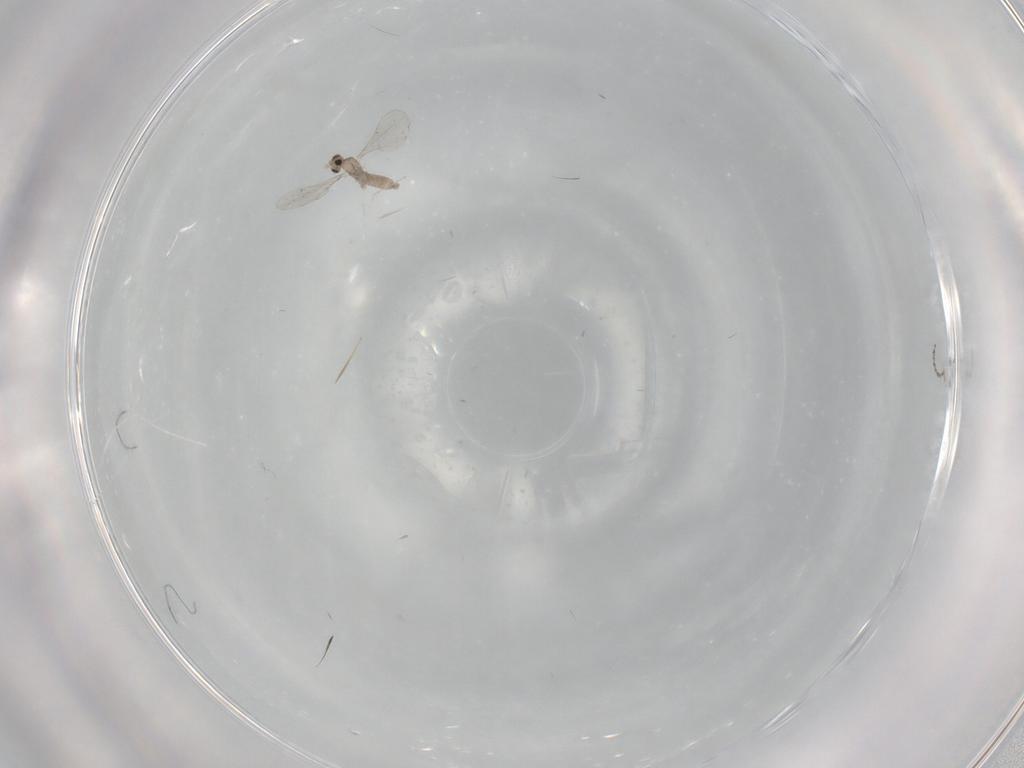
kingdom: Animalia
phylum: Arthropoda
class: Insecta
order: Diptera
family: Cecidomyiidae
